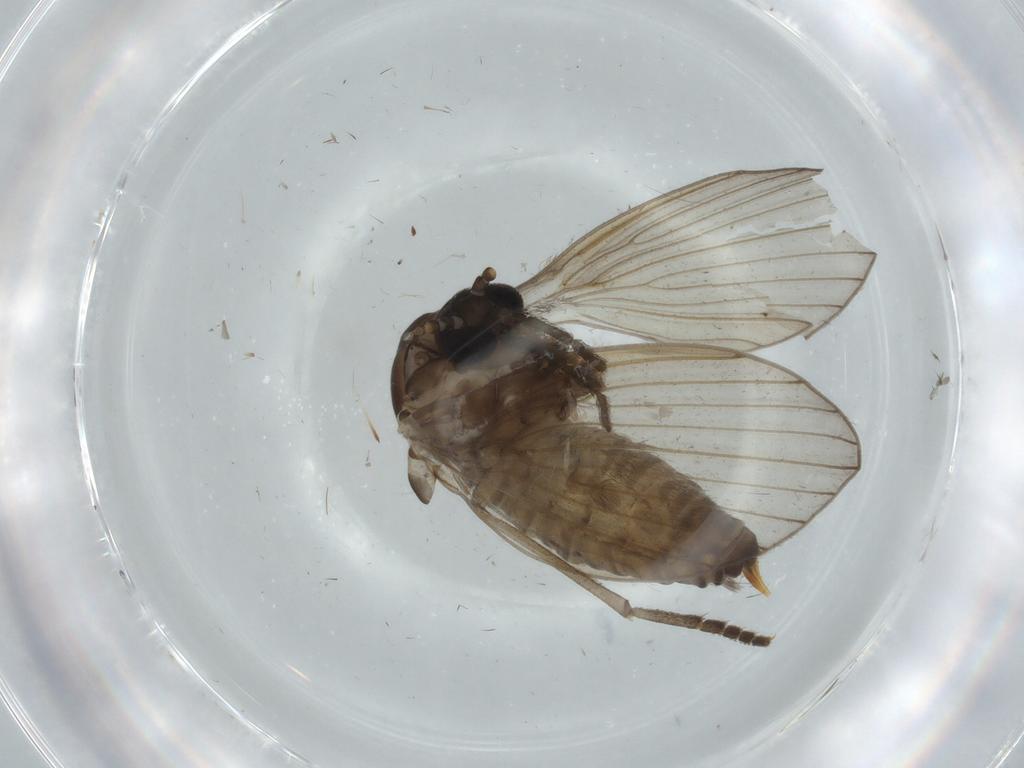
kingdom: Animalia
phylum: Arthropoda
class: Insecta
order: Diptera
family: Cecidomyiidae
